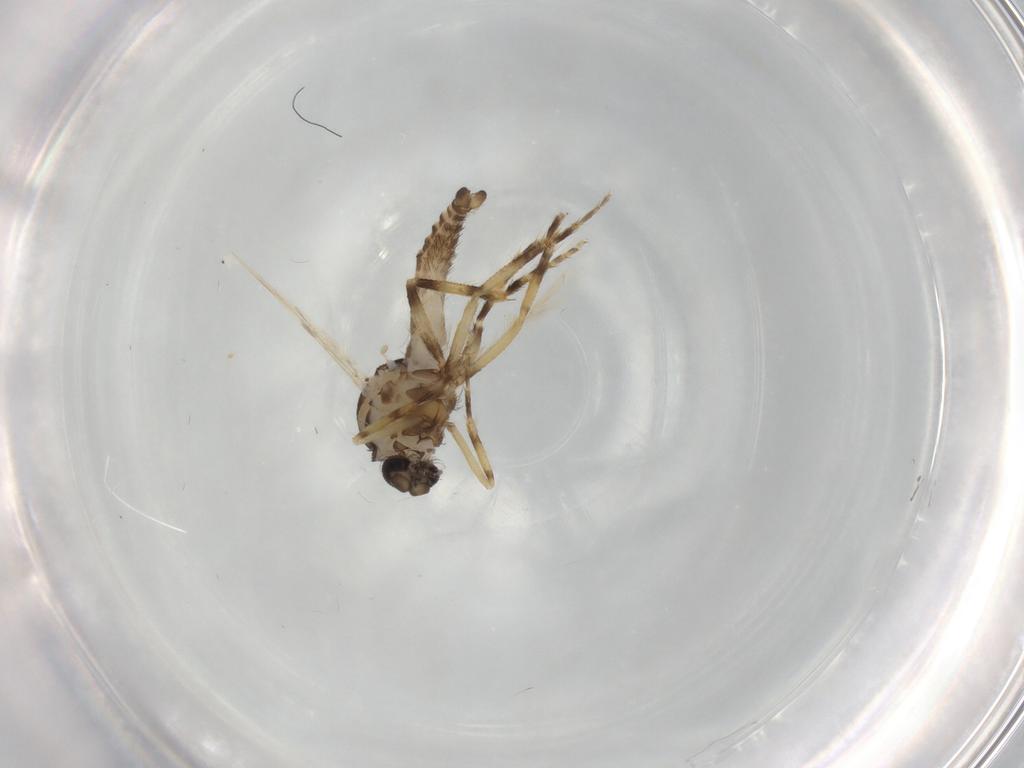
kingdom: Animalia
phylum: Arthropoda
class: Insecta
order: Diptera
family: Ceratopogonidae
